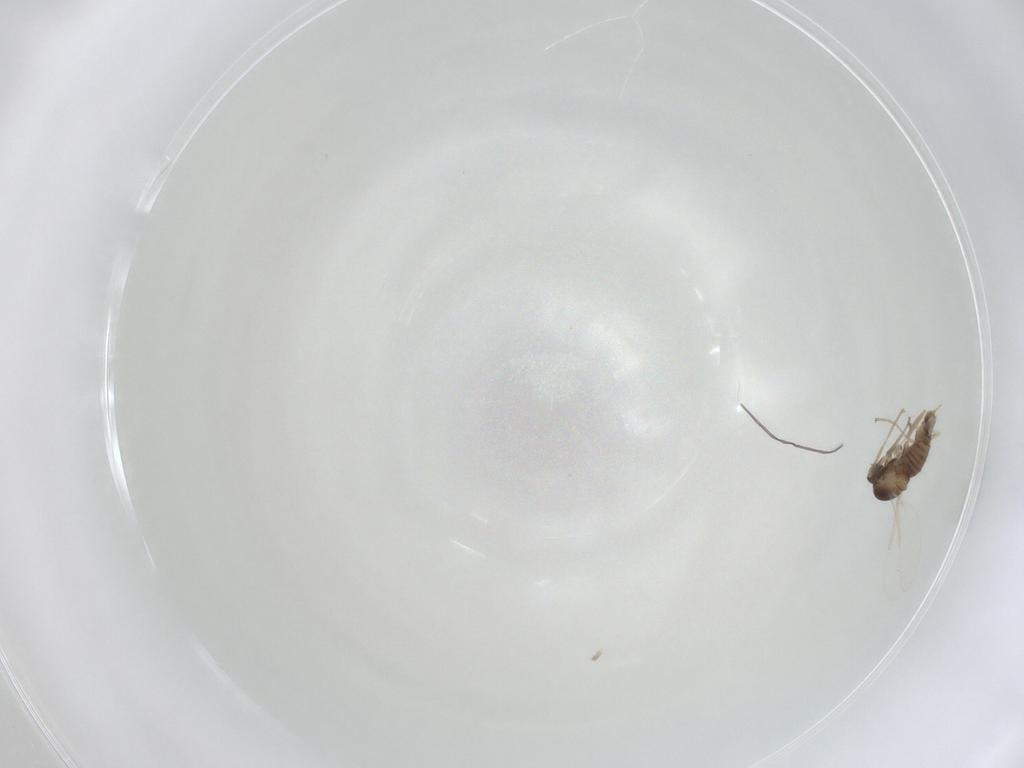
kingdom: Animalia
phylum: Arthropoda
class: Insecta
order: Diptera
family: Cecidomyiidae
